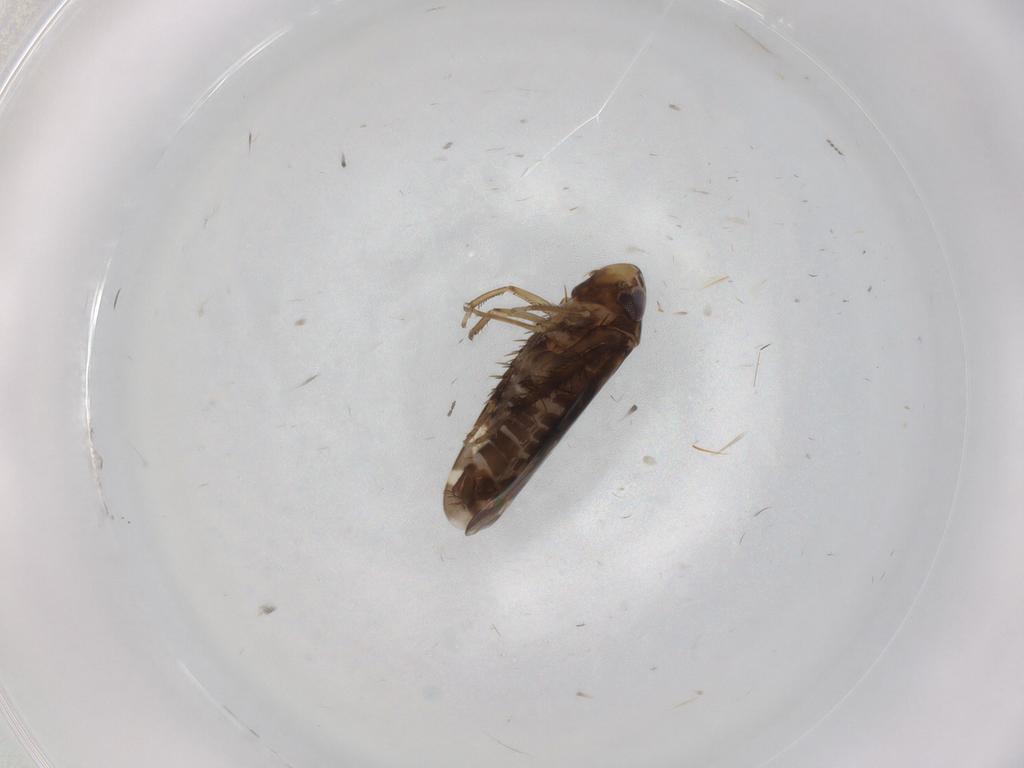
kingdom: Animalia
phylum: Arthropoda
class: Insecta
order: Hemiptera
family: Cicadellidae
